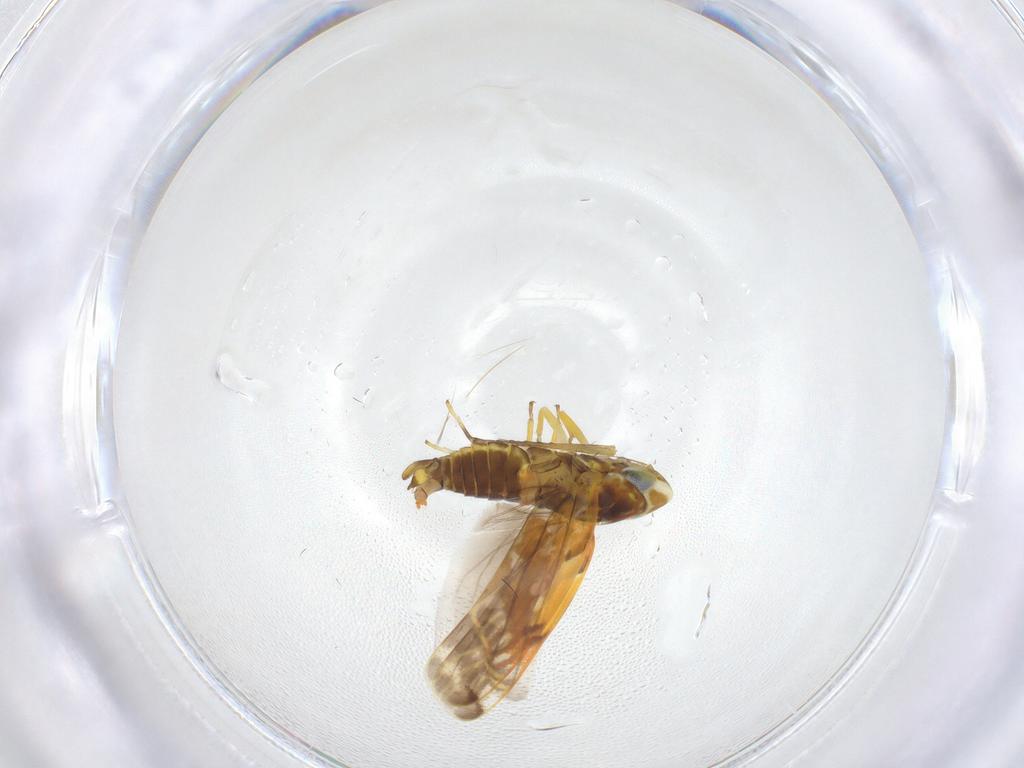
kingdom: Animalia
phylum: Arthropoda
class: Insecta
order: Hemiptera
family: Cicadellidae
